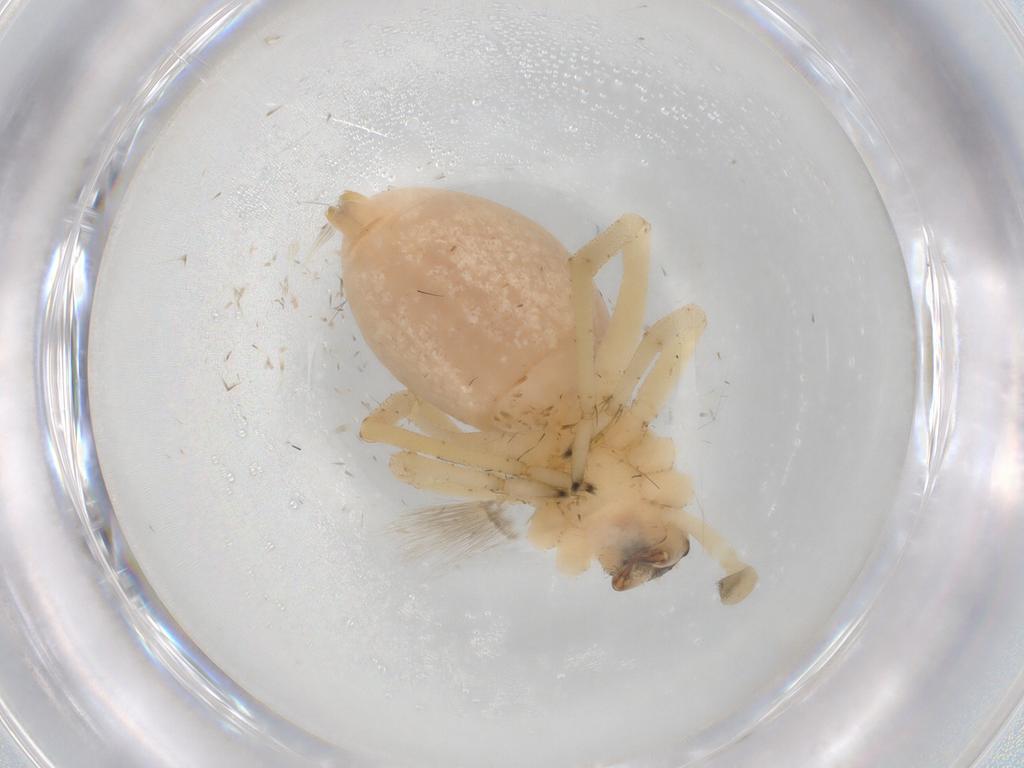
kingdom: Animalia
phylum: Arthropoda
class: Arachnida
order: Araneae
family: Cheiracanthiidae
